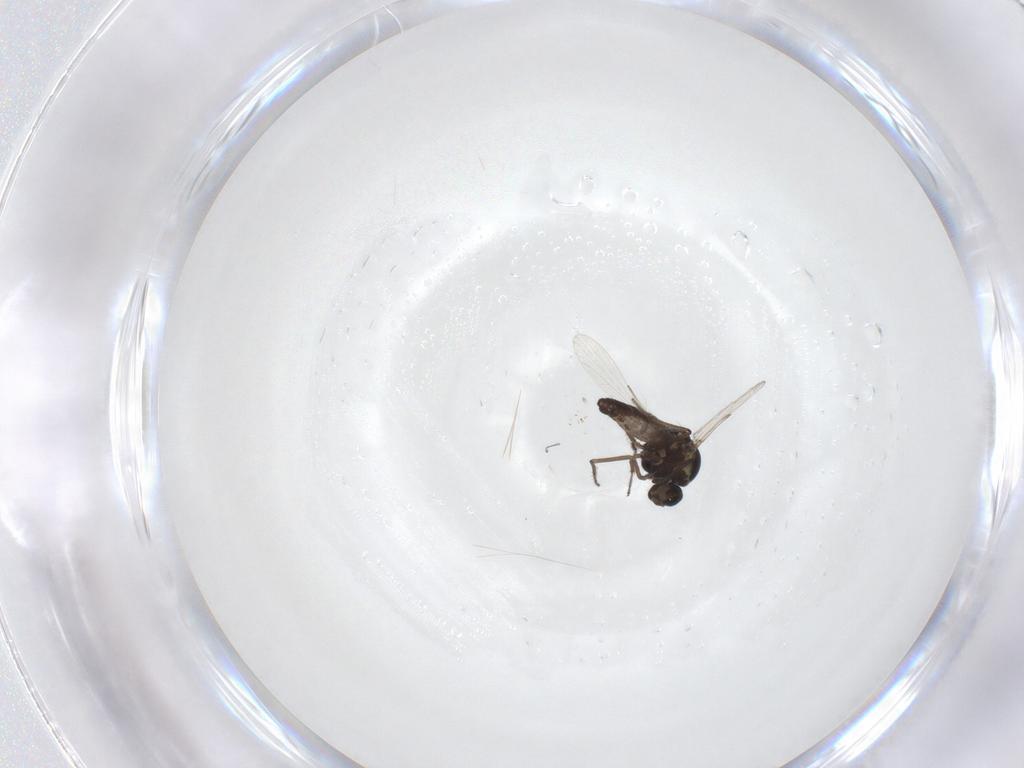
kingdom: Animalia
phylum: Arthropoda
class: Insecta
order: Diptera
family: Ceratopogonidae
